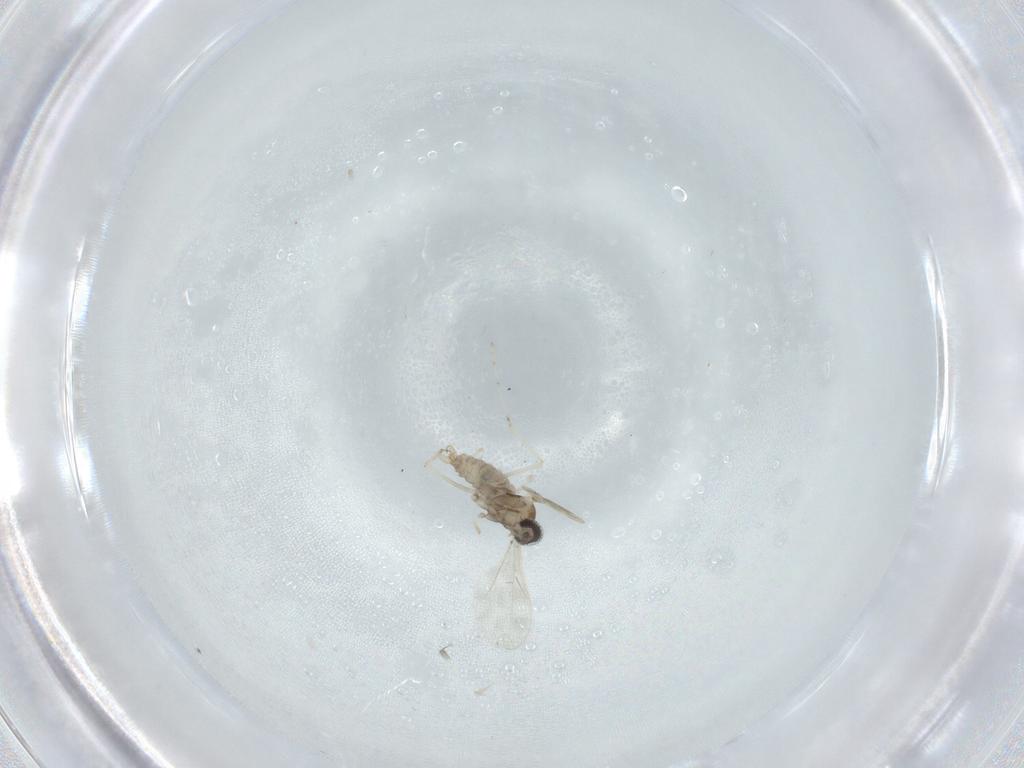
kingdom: Animalia
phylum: Arthropoda
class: Insecta
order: Diptera
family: Cecidomyiidae
